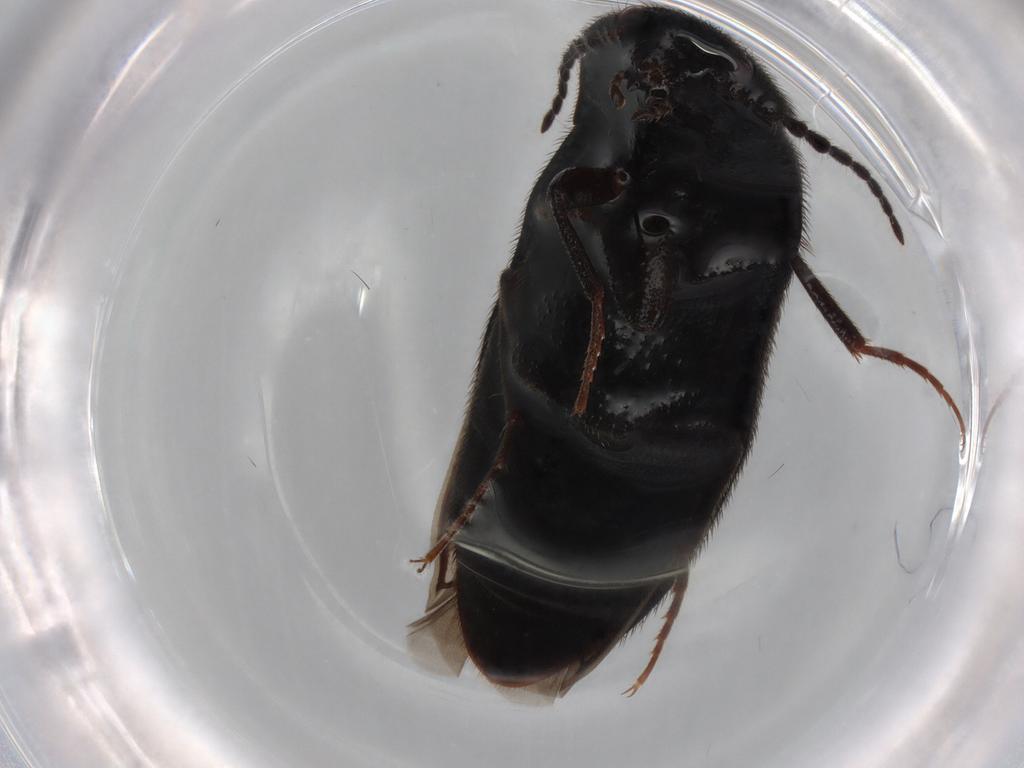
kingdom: Animalia
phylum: Arthropoda
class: Insecta
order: Coleoptera
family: Elateridae
